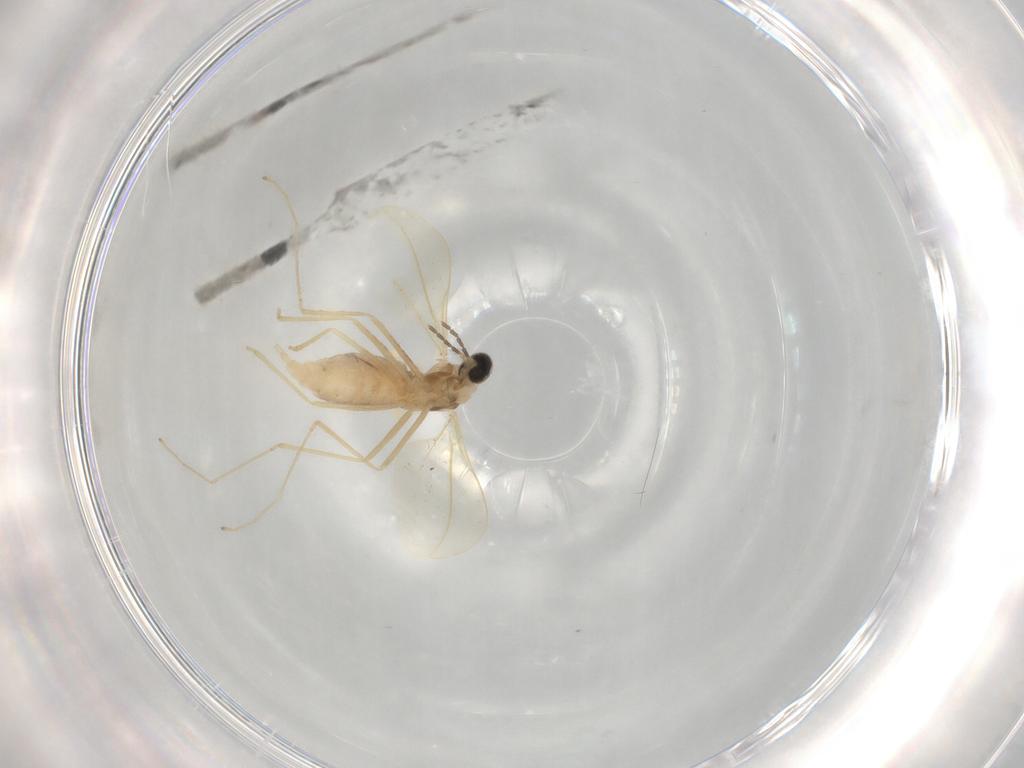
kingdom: Animalia
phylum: Arthropoda
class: Insecta
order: Diptera
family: Cecidomyiidae
